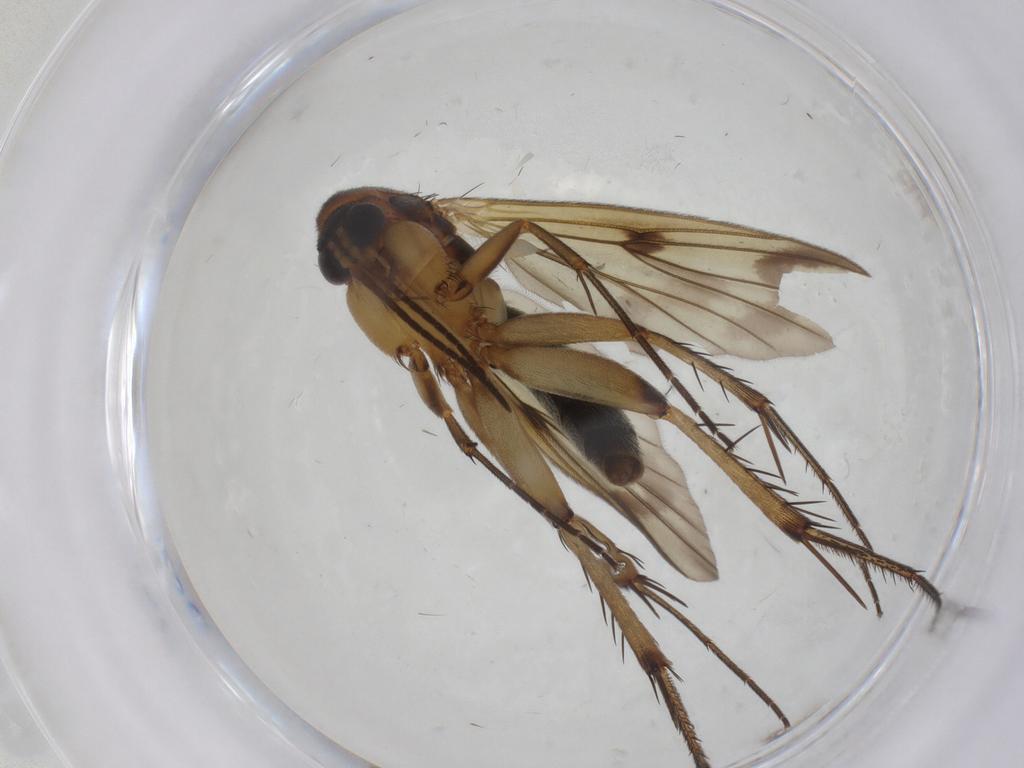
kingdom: Animalia
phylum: Arthropoda
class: Insecta
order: Diptera
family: Chironomidae
